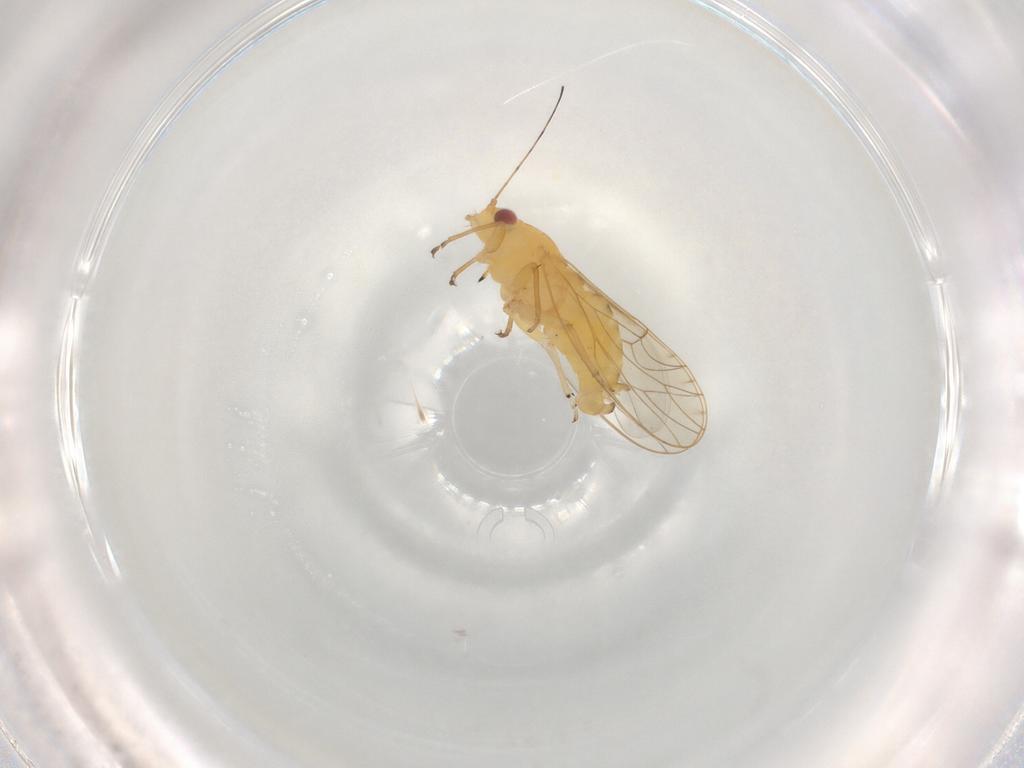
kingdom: Animalia
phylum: Arthropoda
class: Insecta
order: Hemiptera
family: Psyllidae
